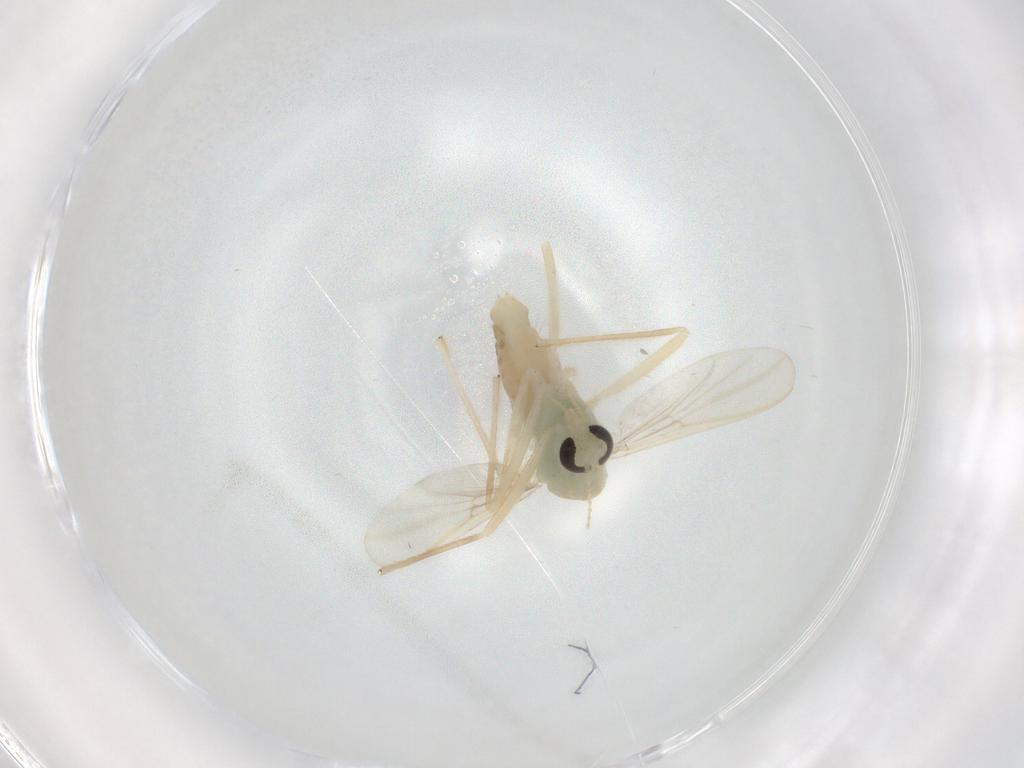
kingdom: Animalia
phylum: Arthropoda
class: Insecta
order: Diptera
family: Chironomidae
